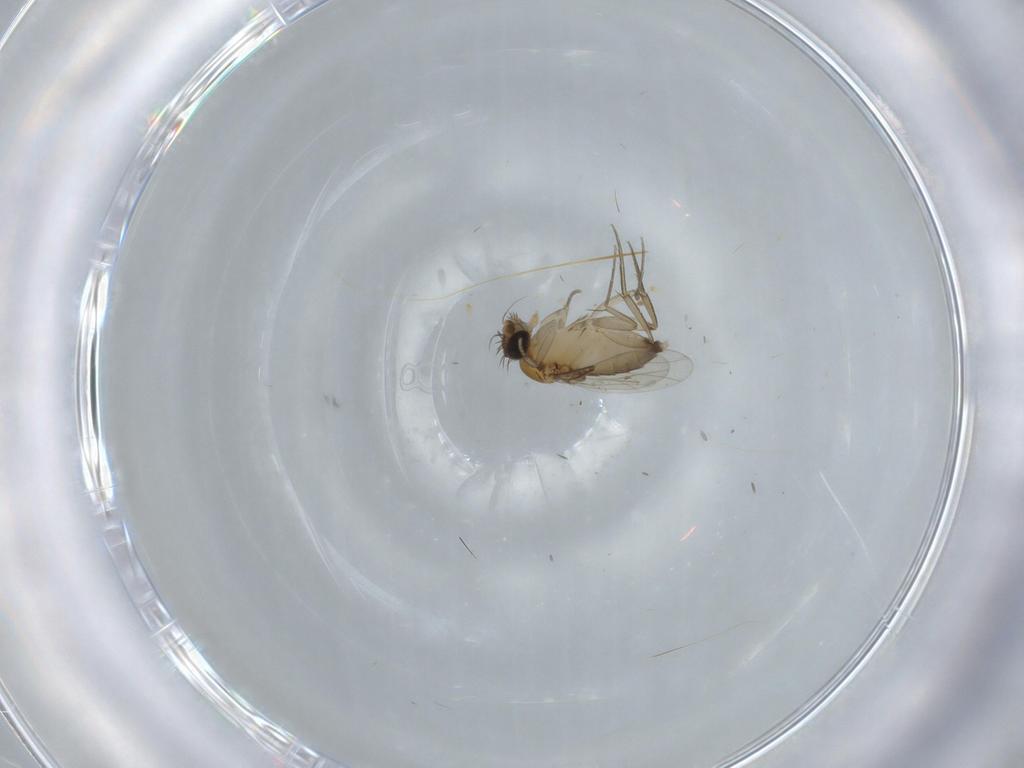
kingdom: Animalia
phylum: Arthropoda
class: Insecta
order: Diptera
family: Phoridae
